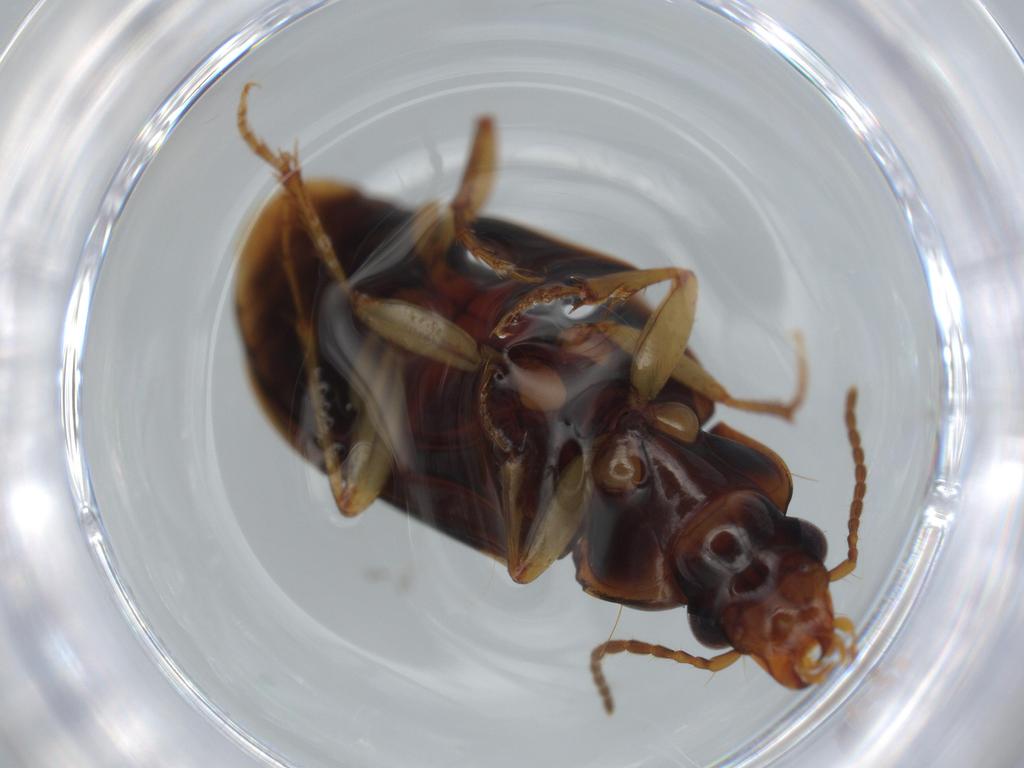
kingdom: Animalia
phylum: Arthropoda
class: Insecta
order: Coleoptera
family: Carabidae
